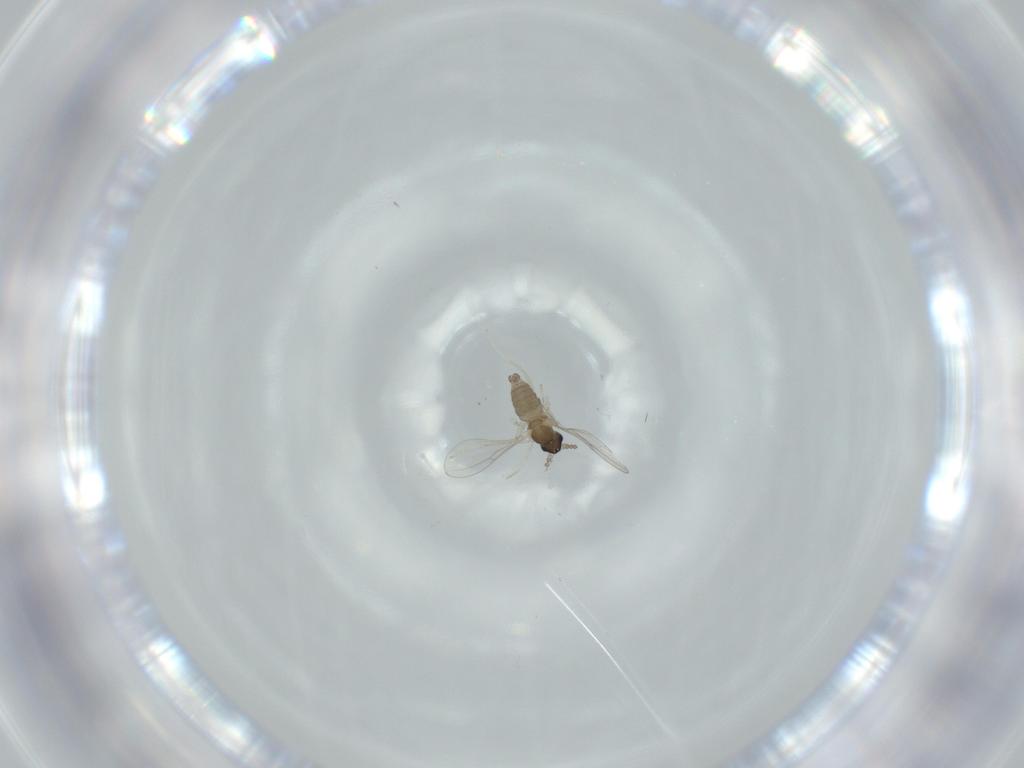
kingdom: Animalia
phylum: Arthropoda
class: Insecta
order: Diptera
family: Cecidomyiidae
